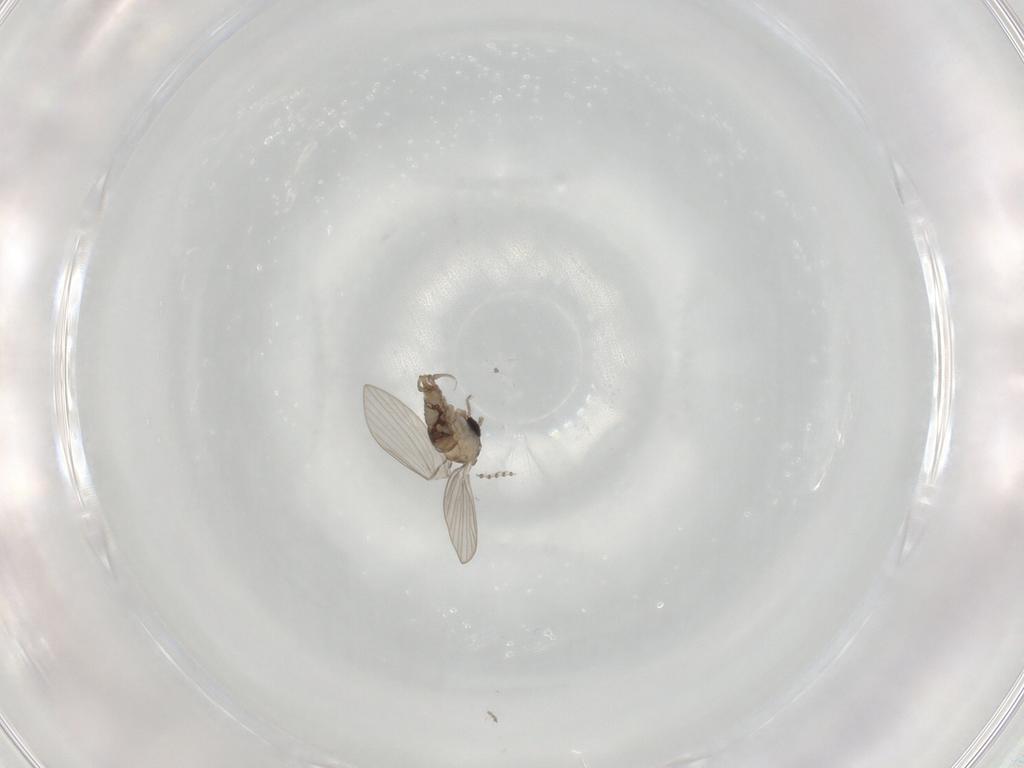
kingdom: Animalia
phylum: Arthropoda
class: Insecta
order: Diptera
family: Psychodidae
